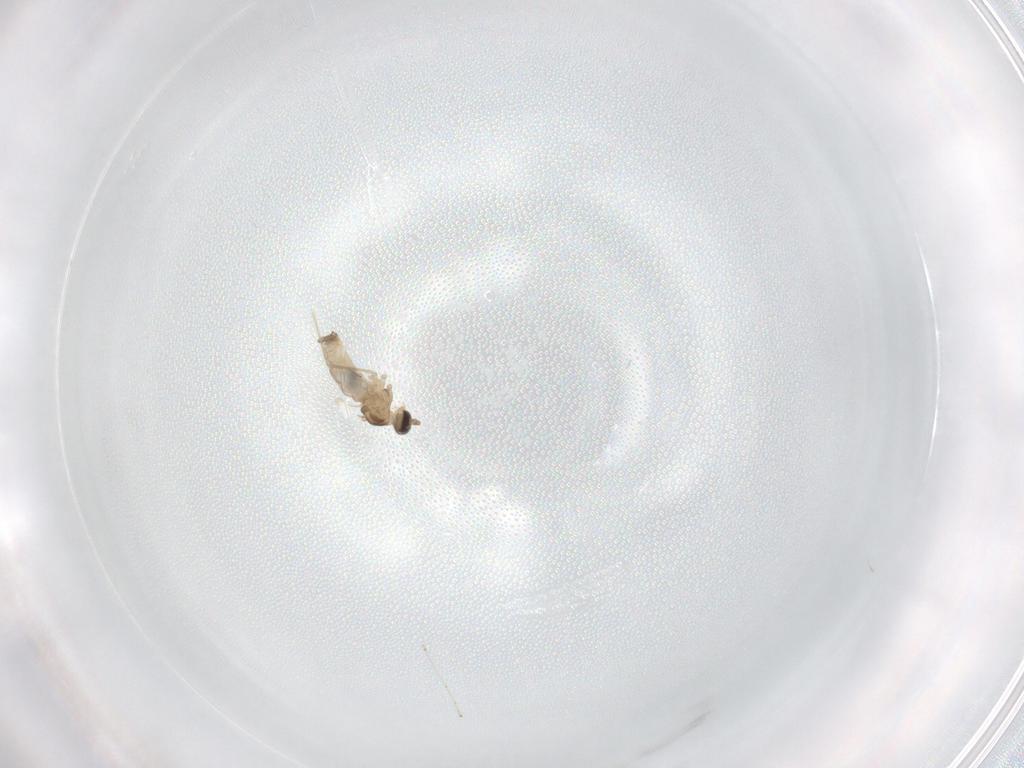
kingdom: Animalia
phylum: Arthropoda
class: Insecta
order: Diptera
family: Cecidomyiidae
